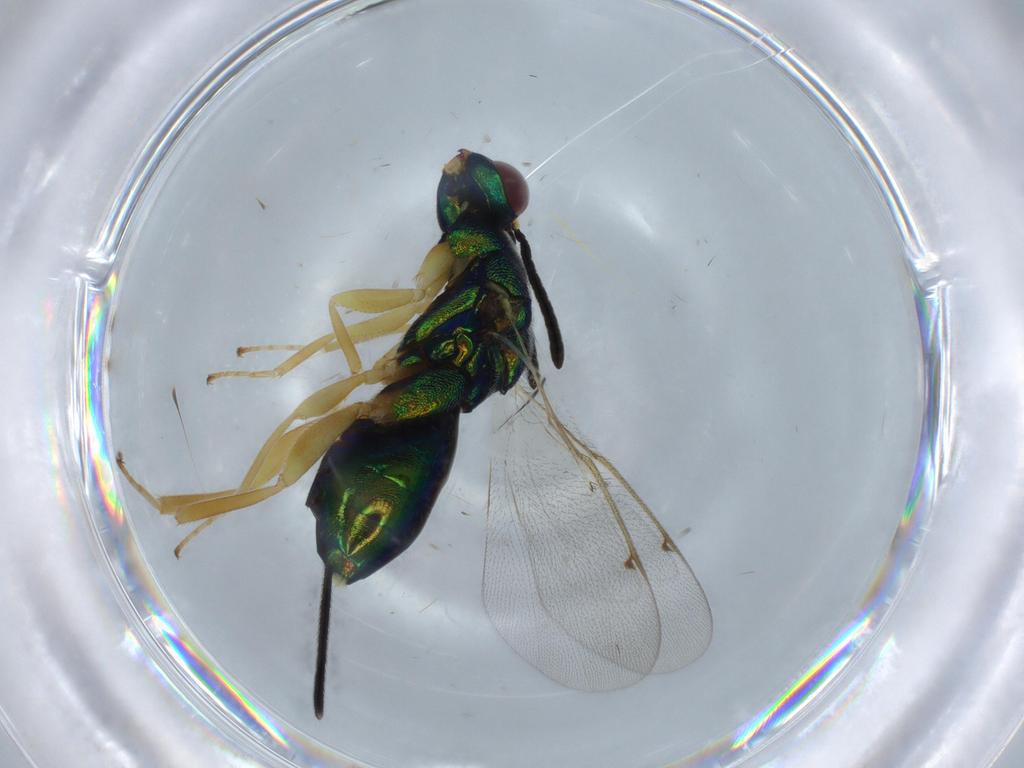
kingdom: Animalia
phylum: Arthropoda
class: Insecta
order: Hymenoptera
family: Torymidae
